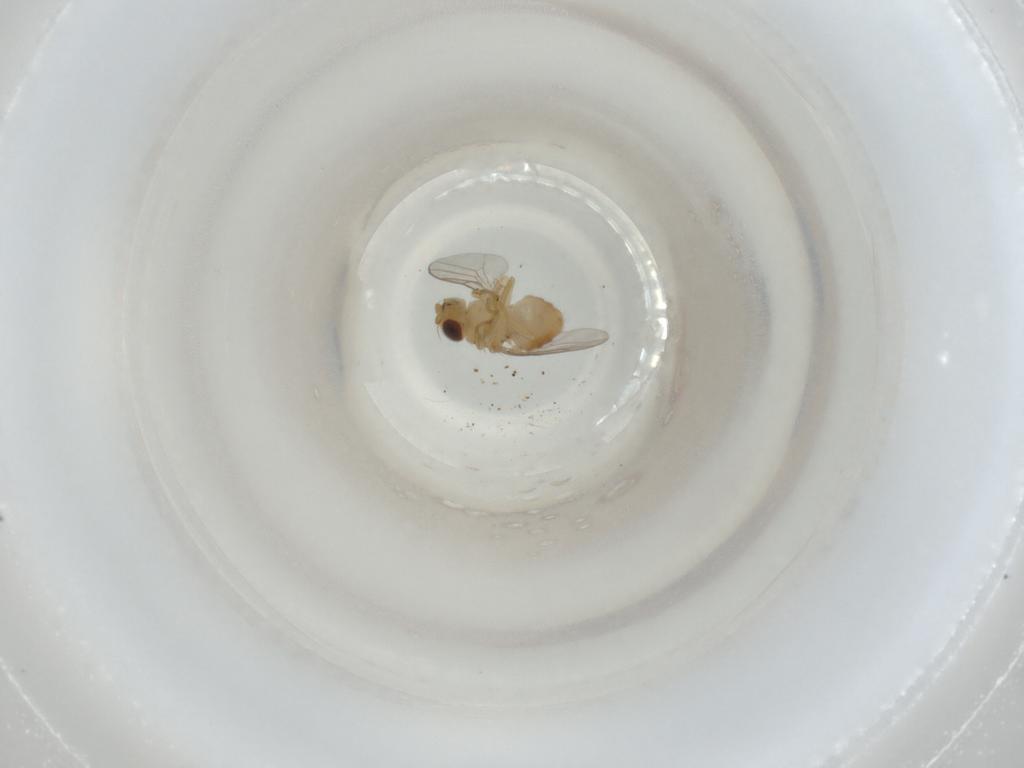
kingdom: Animalia
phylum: Arthropoda
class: Insecta
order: Diptera
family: Chloropidae
